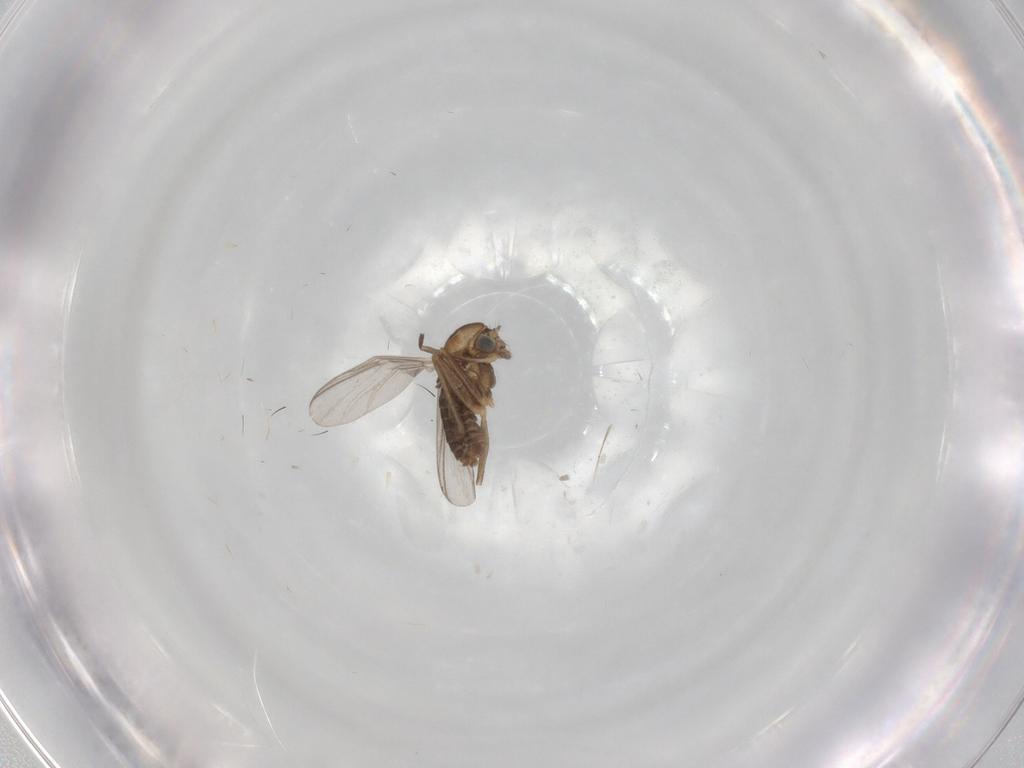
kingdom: Animalia
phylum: Arthropoda
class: Insecta
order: Diptera
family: Chironomidae
